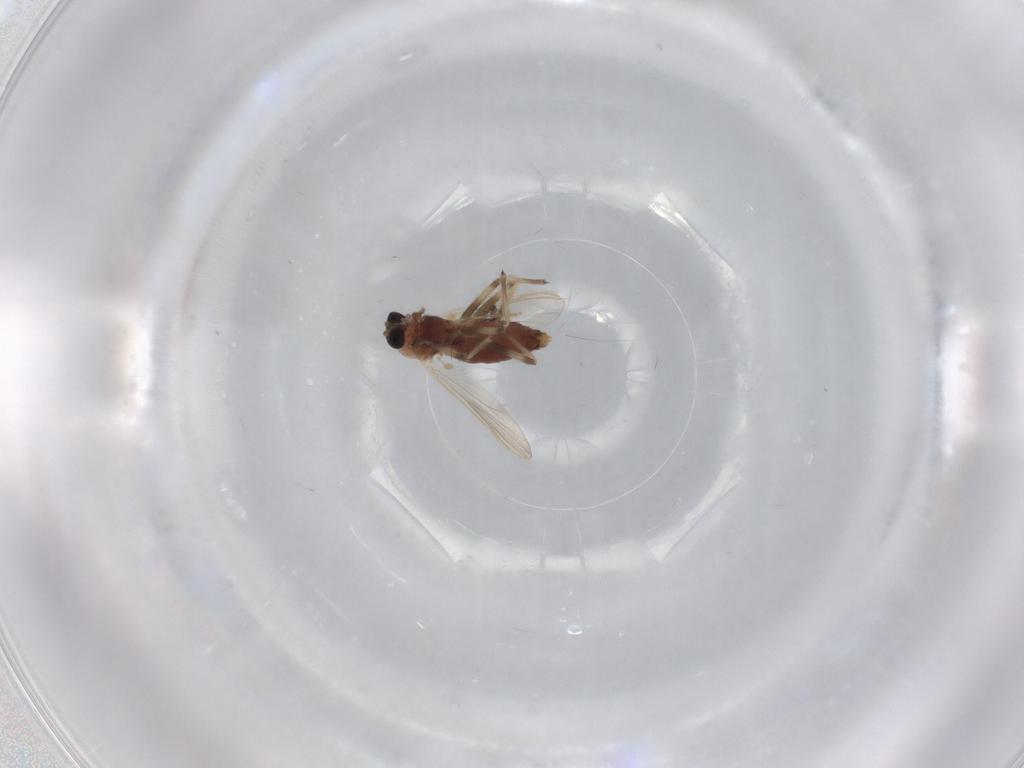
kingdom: Animalia
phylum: Arthropoda
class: Insecta
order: Diptera
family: Chironomidae
